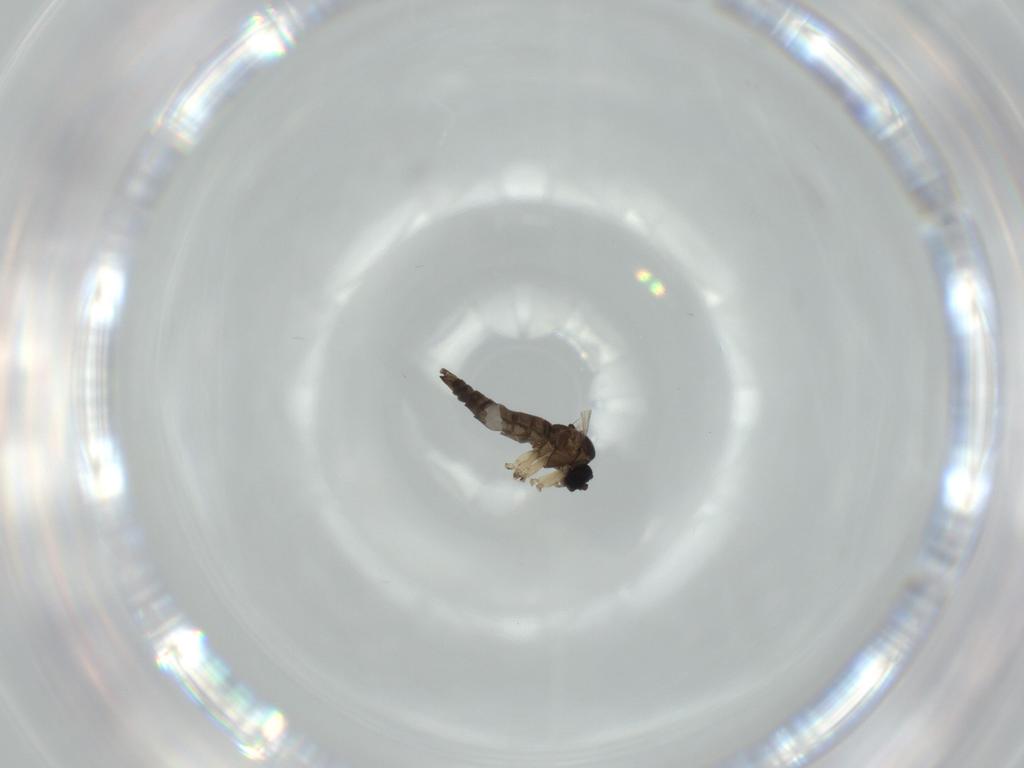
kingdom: Animalia
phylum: Arthropoda
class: Insecta
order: Diptera
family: Sciaridae
